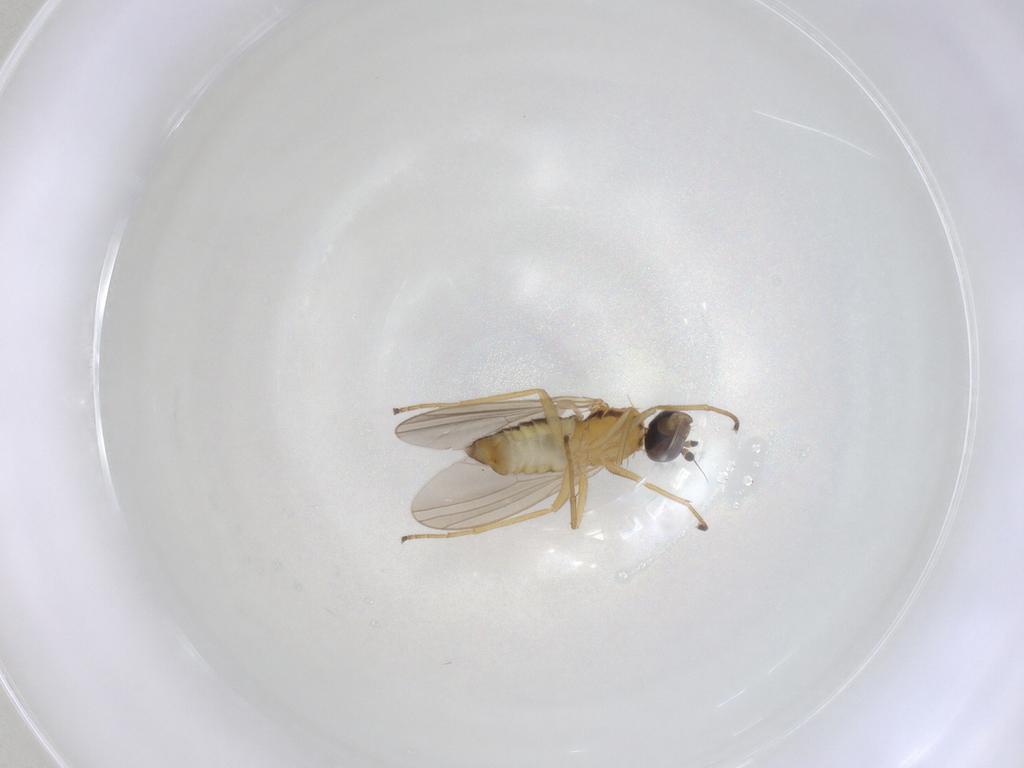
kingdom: Animalia
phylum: Arthropoda
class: Insecta
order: Diptera
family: Dolichopodidae
